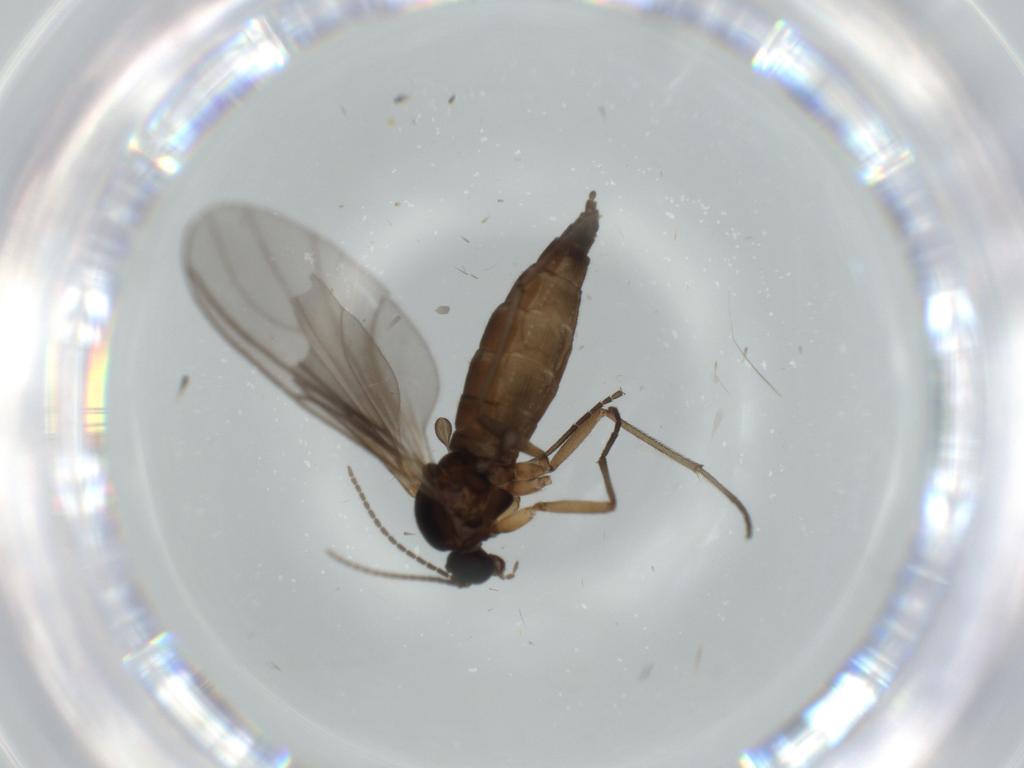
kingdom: Animalia
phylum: Arthropoda
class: Insecta
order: Diptera
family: Sciaridae
